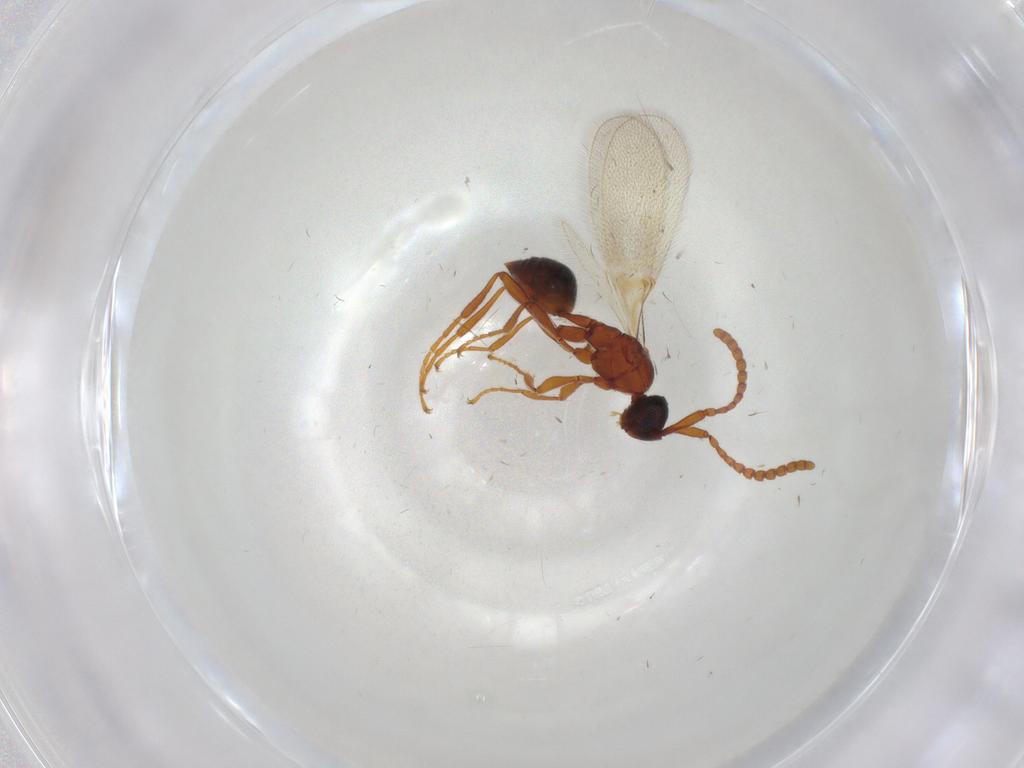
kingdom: Animalia
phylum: Arthropoda
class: Insecta
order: Hymenoptera
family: Diapriidae
